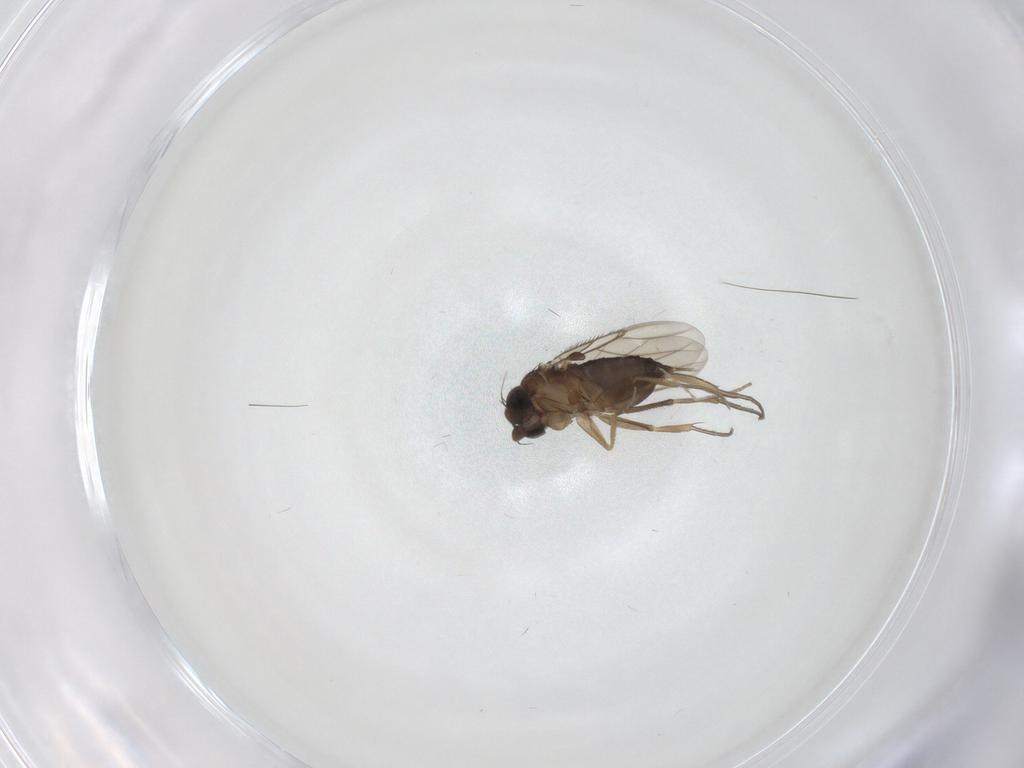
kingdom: Animalia
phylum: Arthropoda
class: Insecta
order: Diptera
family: Cecidomyiidae
